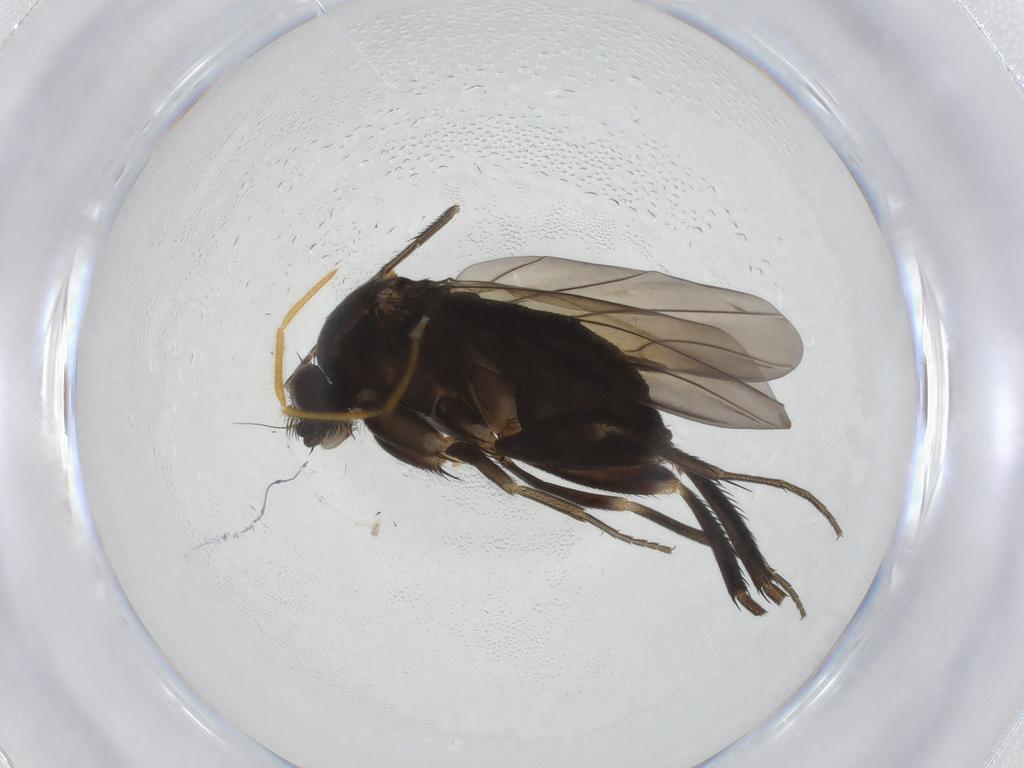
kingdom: Animalia
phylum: Arthropoda
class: Insecta
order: Diptera
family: Phoridae
